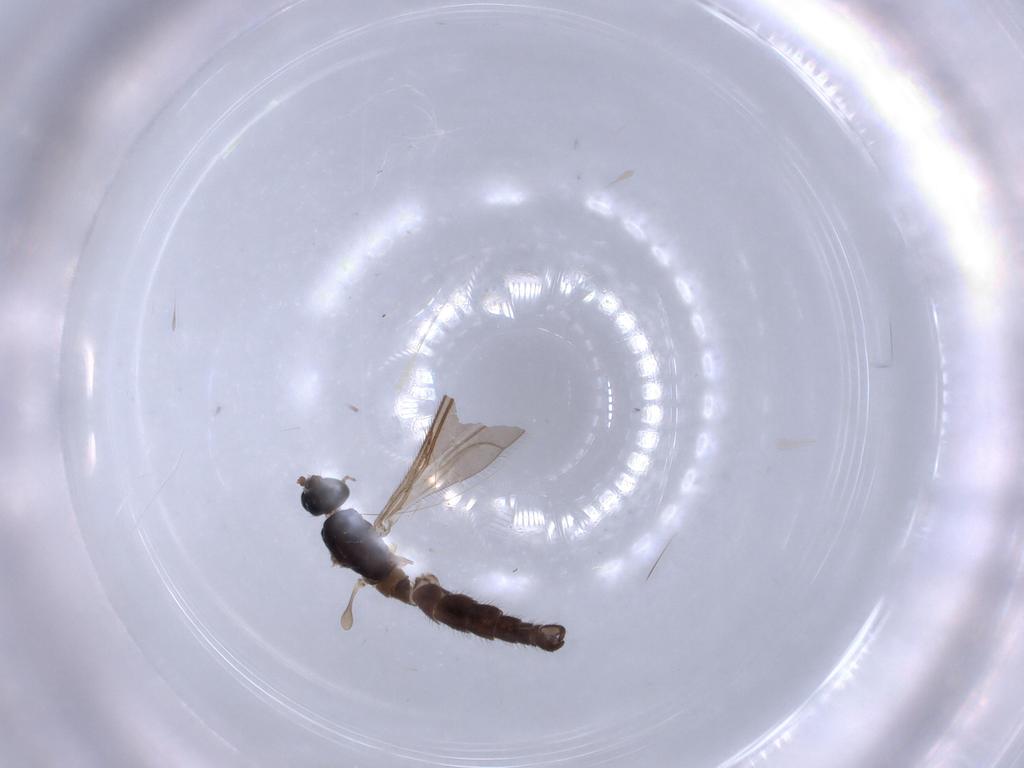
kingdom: Animalia
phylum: Arthropoda
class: Insecta
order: Diptera
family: Sciaridae
